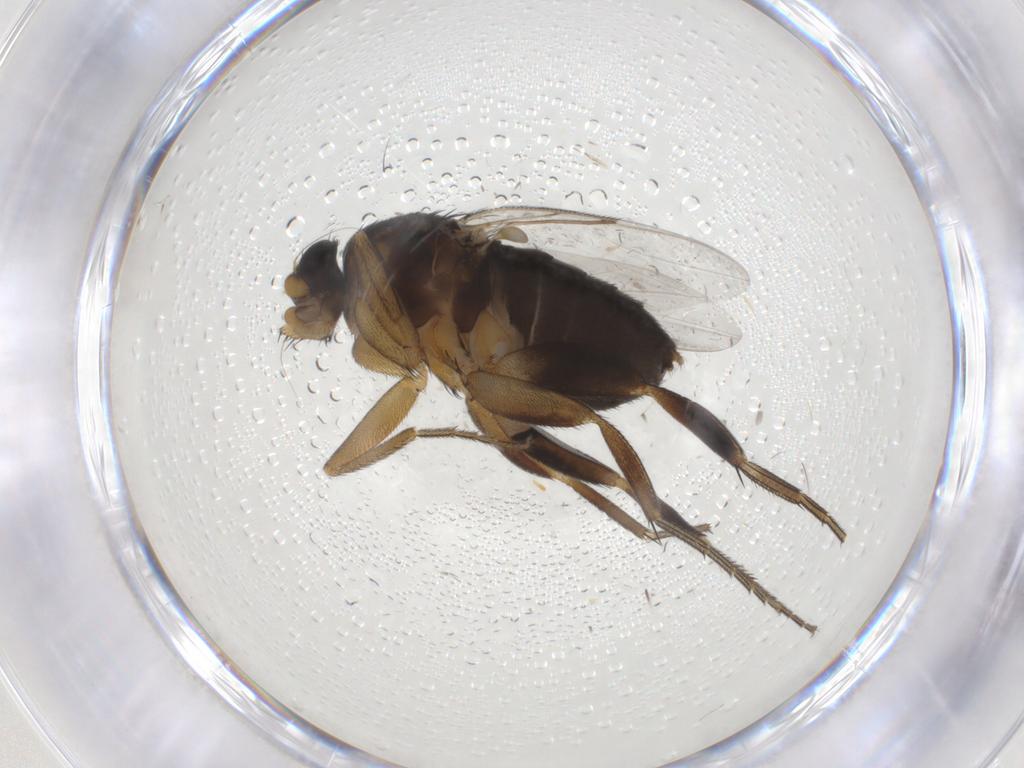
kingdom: Animalia
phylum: Arthropoda
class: Insecta
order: Diptera
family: Phoridae
